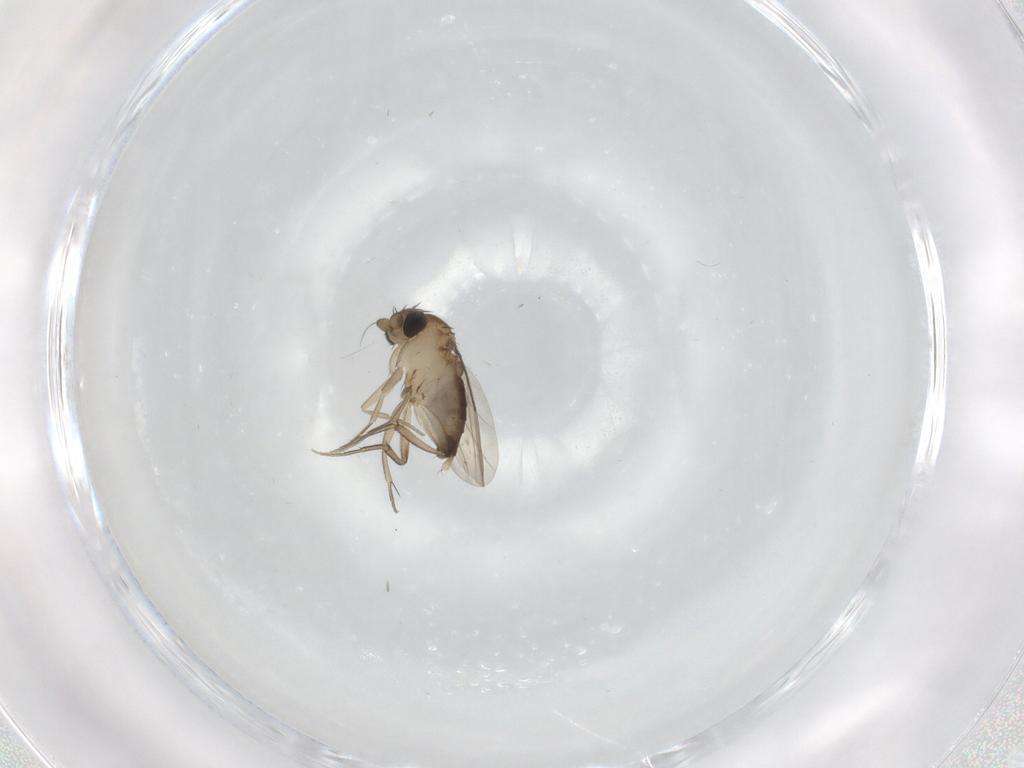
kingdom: Animalia
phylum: Arthropoda
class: Insecta
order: Diptera
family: Phoridae
